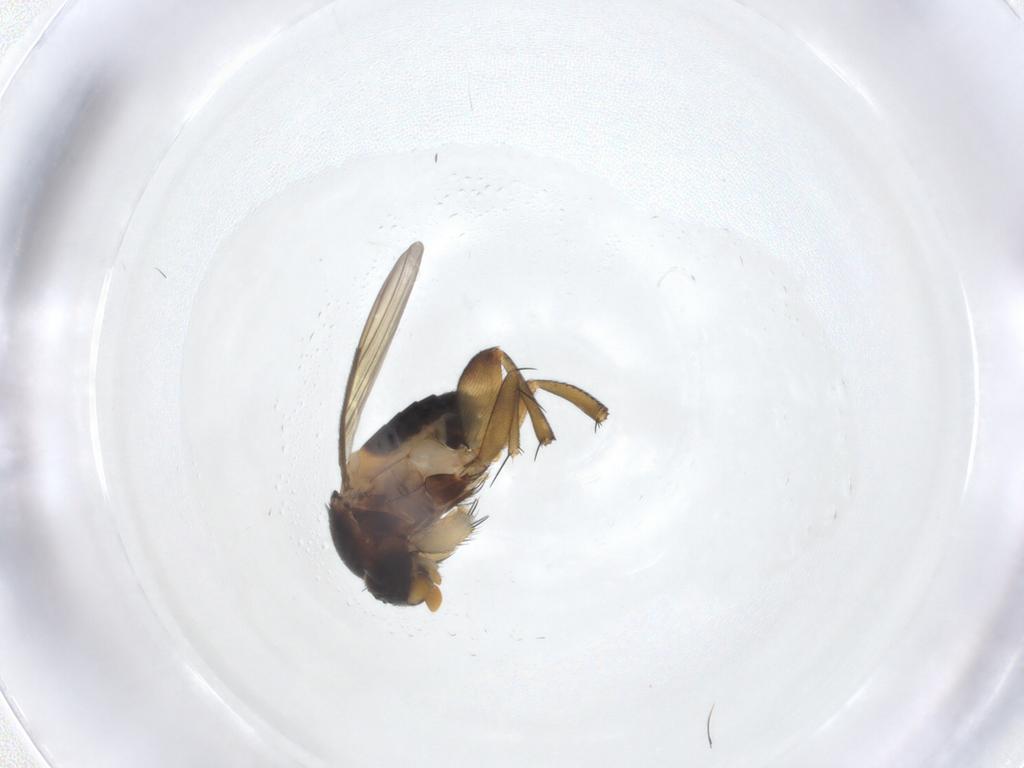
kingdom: Animalia
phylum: Arthropoda
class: Insecta
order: Diptera
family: Phoridae
